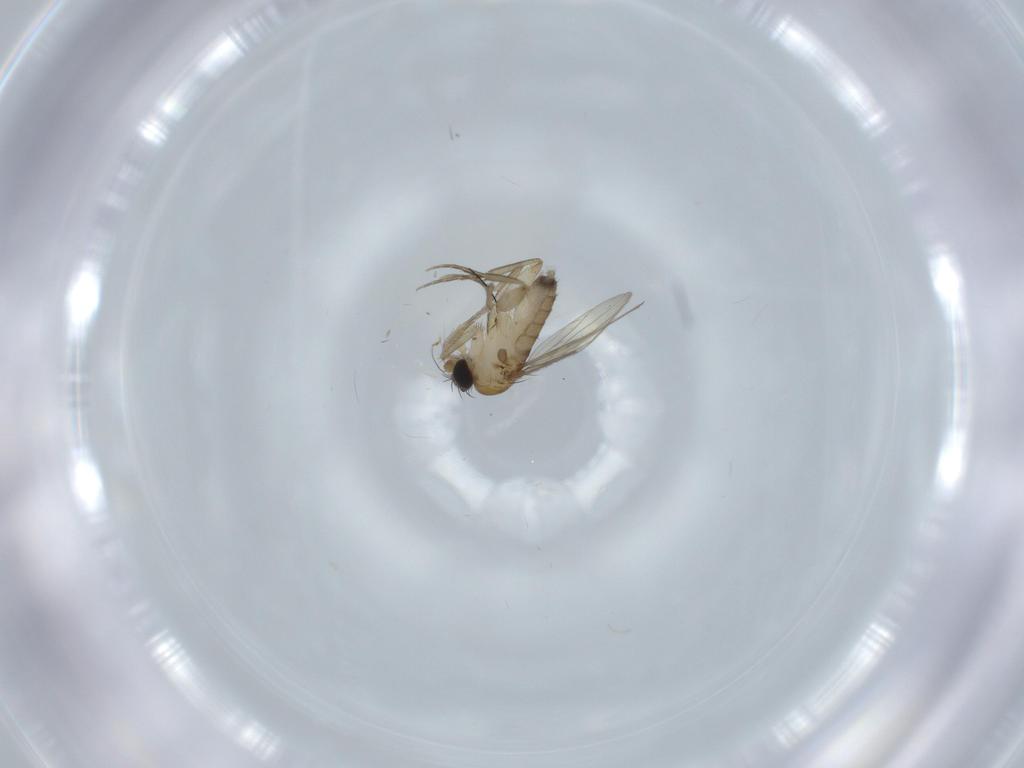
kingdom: Animalia
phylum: Arthropoda
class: Insecta
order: Diptera
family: Phoridae
